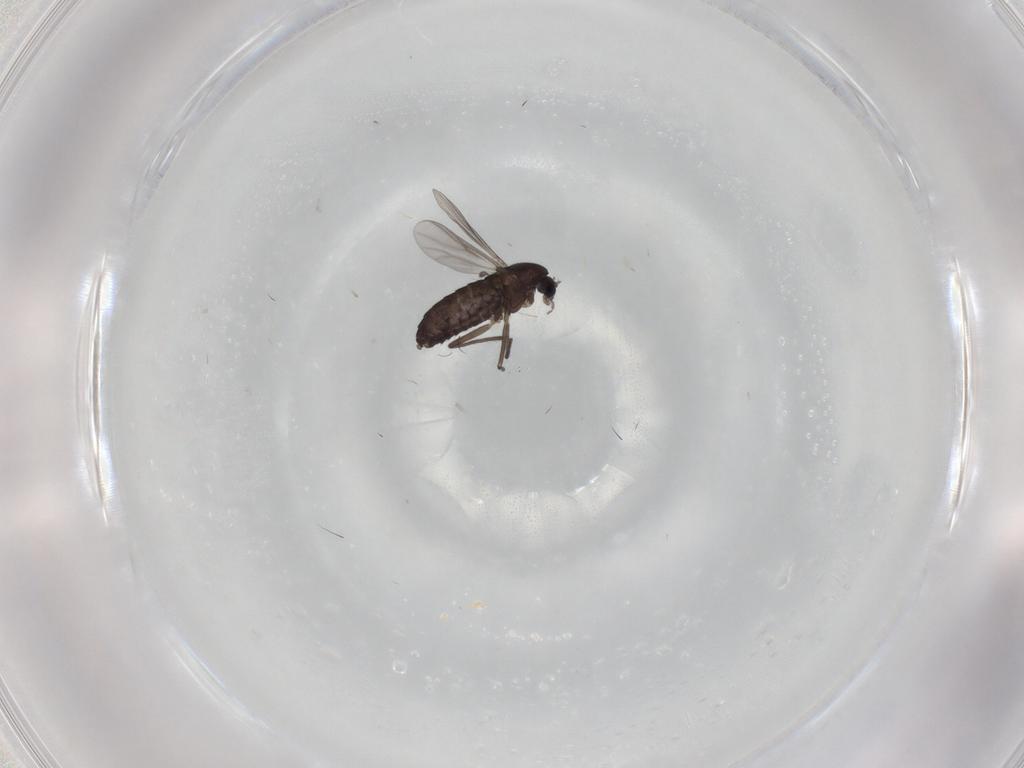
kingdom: Animalia
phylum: Arthropoda
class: Insecta
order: Diptera
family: Chironomidae
